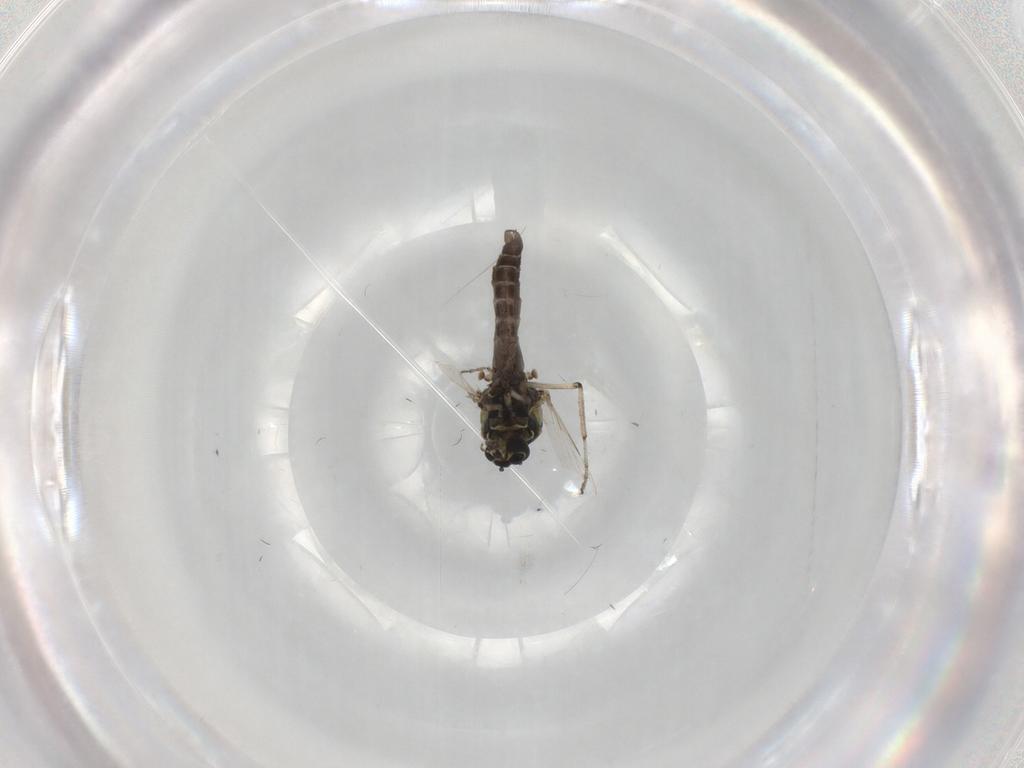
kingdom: Animalia
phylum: Arthropoda
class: Insecta
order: Diptera
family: Ceratopogonidae
